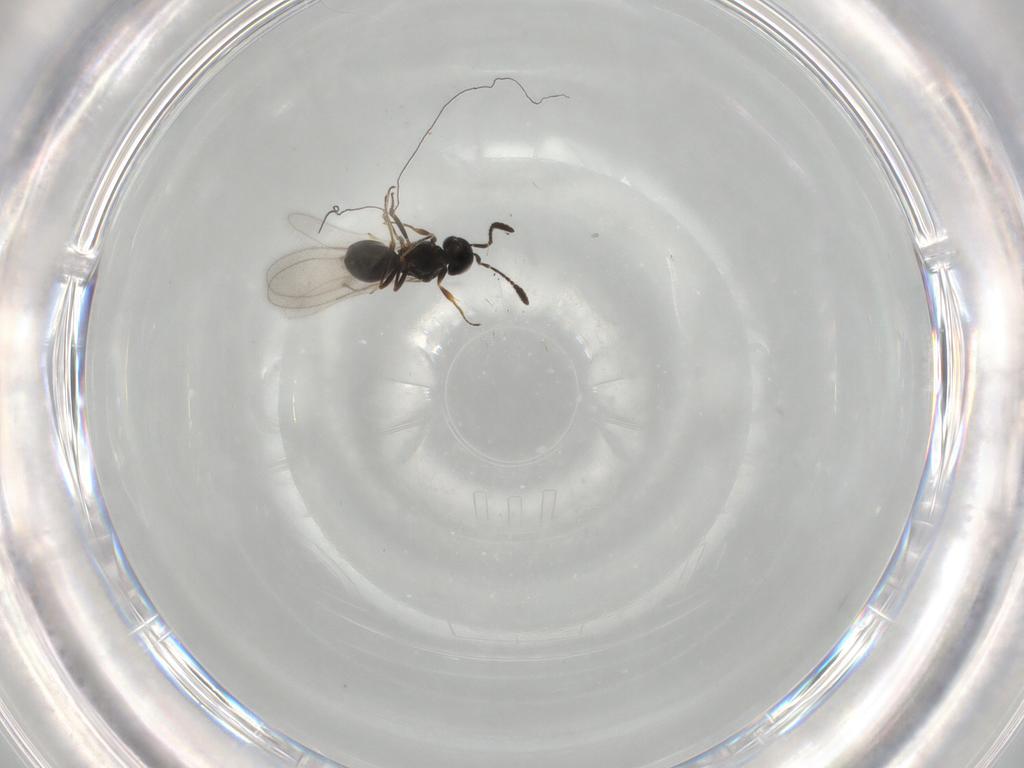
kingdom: Animalia
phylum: Arthropoda
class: Insecta
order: Hymenoptera
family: Scelionidae
